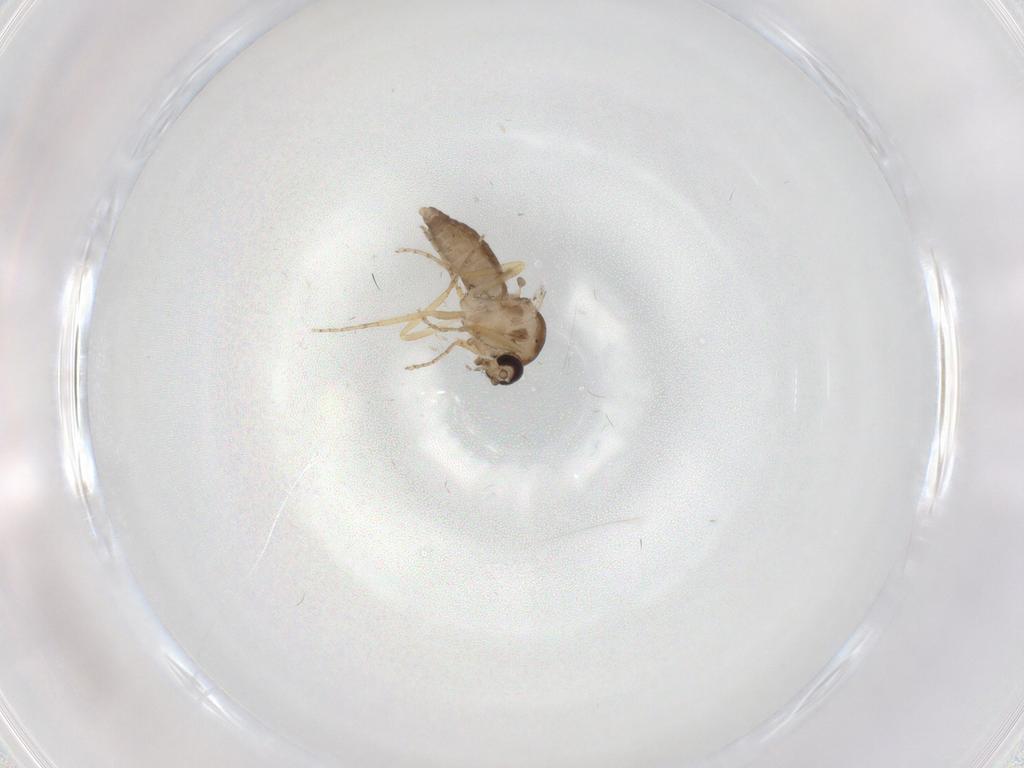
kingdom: Animalia
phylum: Arthropoda
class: Insecta
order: Diptera
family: Ceratopogonidae
